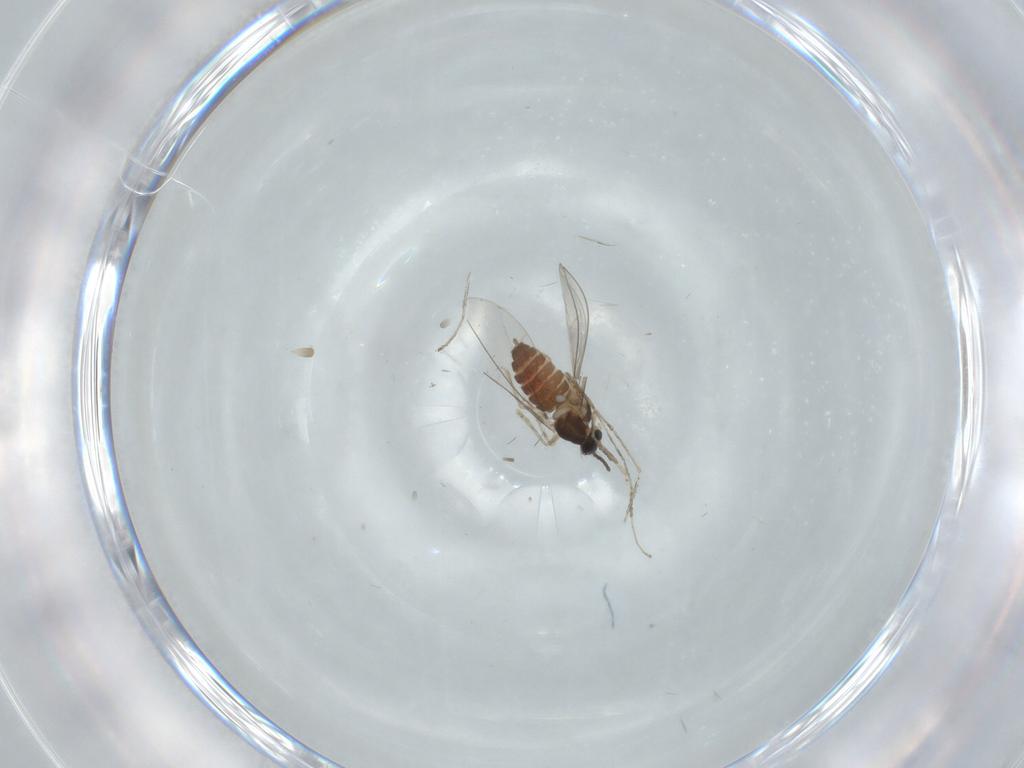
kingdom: Animalia
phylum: Arthropoda
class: Insecta
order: Diptera
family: Cecidomyiidae
